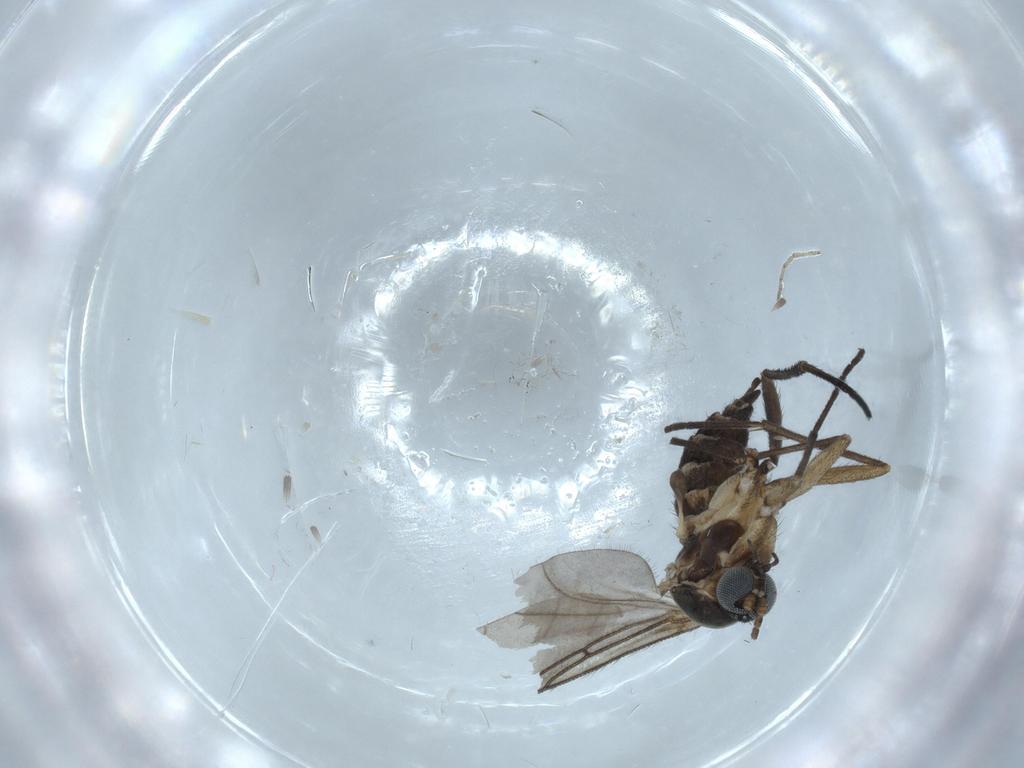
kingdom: Animalia
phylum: Arthropoda
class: Insecta
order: Diptera
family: Sciaridae
